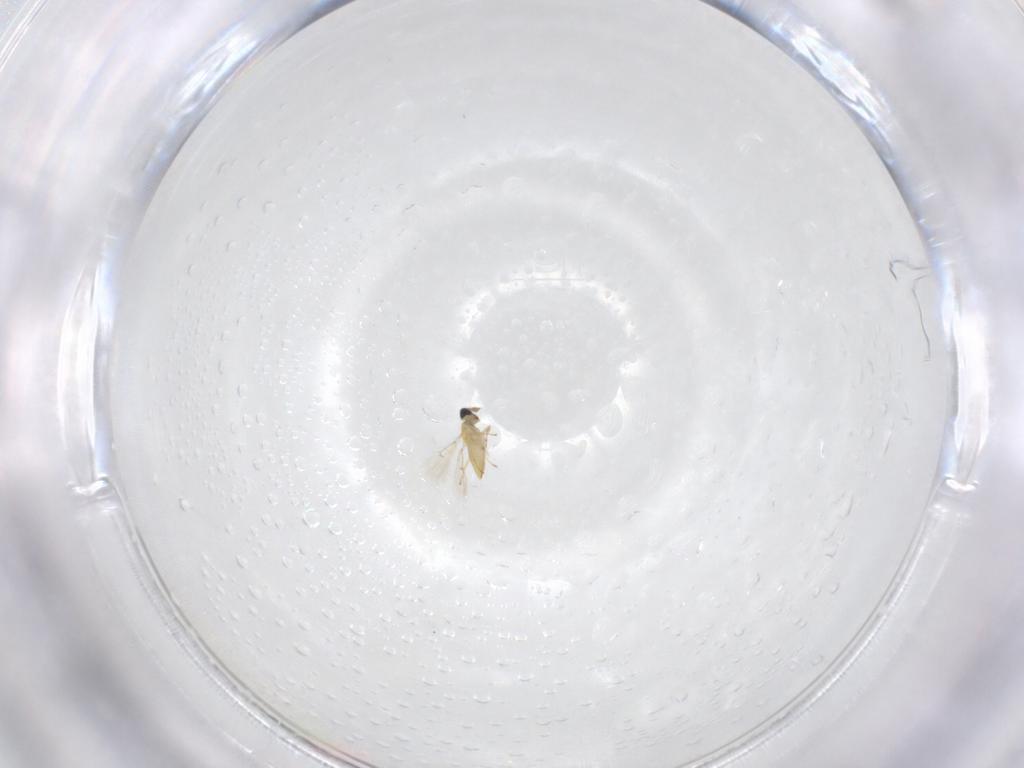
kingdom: Animalia
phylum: Arthropoda
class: Insecta
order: Hymenoptera
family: Trichogrammatidae
